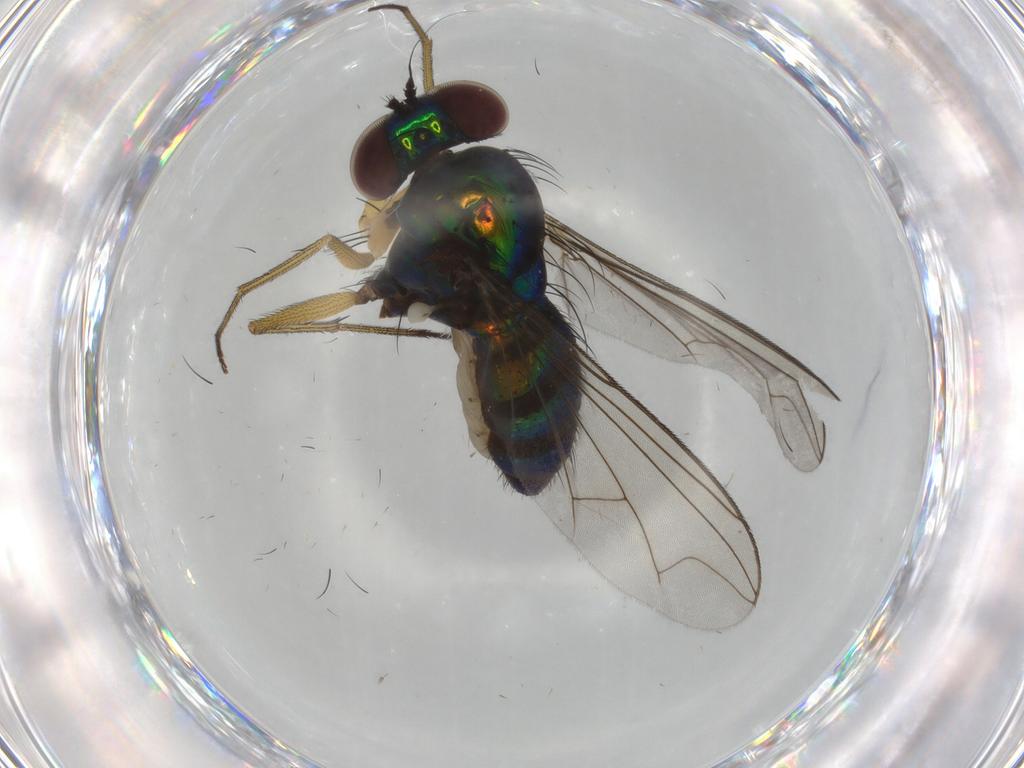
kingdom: Animalia
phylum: Arthropoda
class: Insecta
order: Diptera
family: Dolichopodidae
